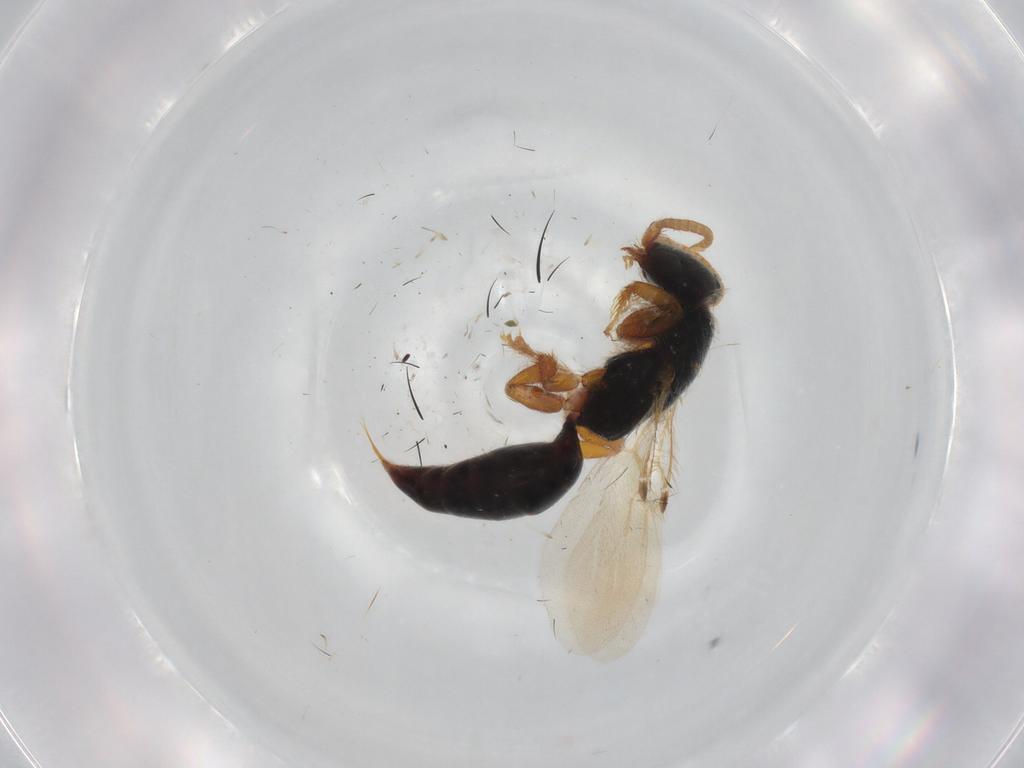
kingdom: Animalia
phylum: Arthropoda
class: Insecta
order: Hymenoptera
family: Bethylidae
